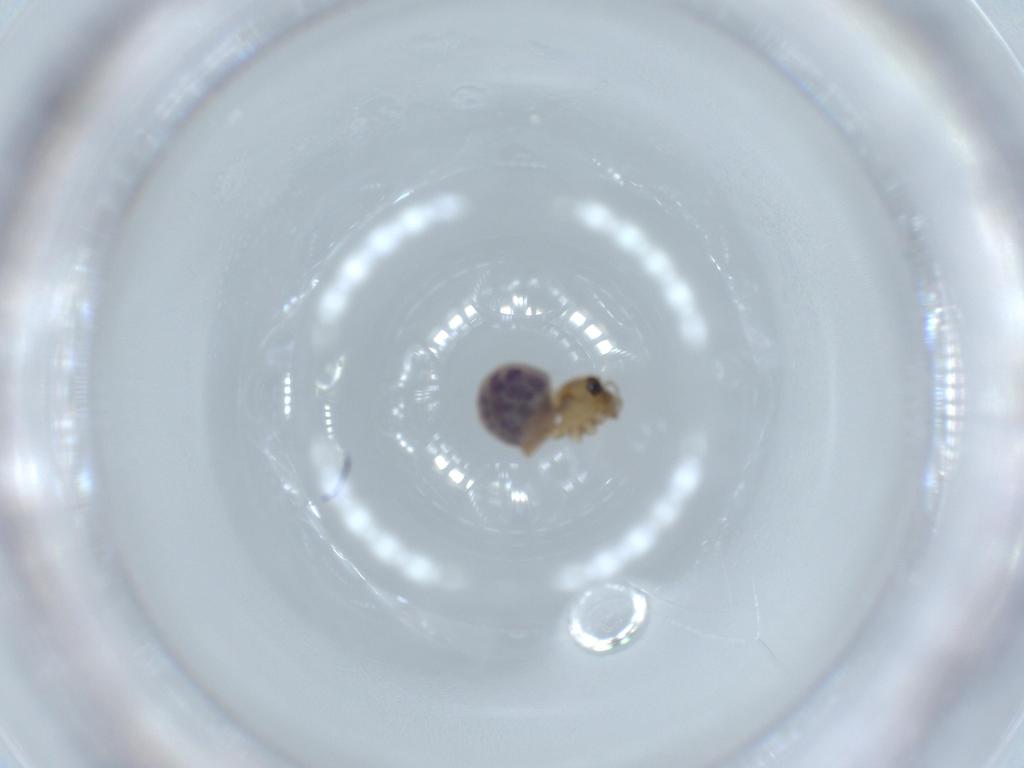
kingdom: Animalia
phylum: Arthropoda
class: Arachnida
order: Araneae
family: Pholcidae
